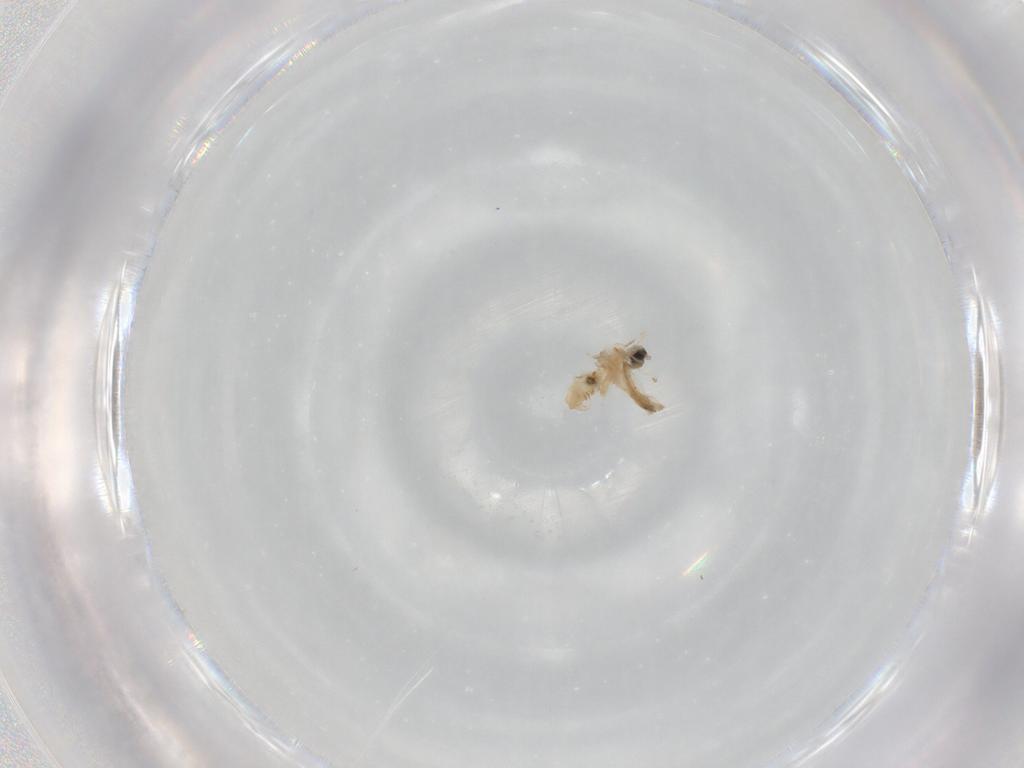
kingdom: Animalia
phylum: Arthropoda
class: Insecta
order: Diptera
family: Cecidomyiidae
